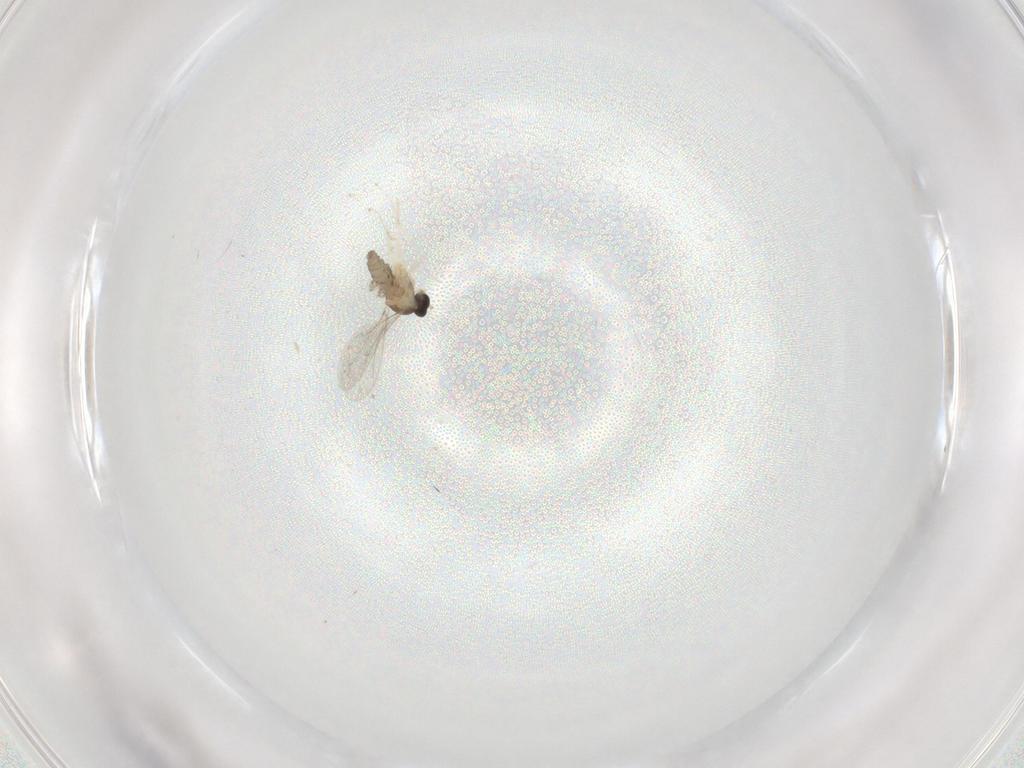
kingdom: Animalia
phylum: Arthropoda
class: Insecta
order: Diptera
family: Cecidomyiidae
